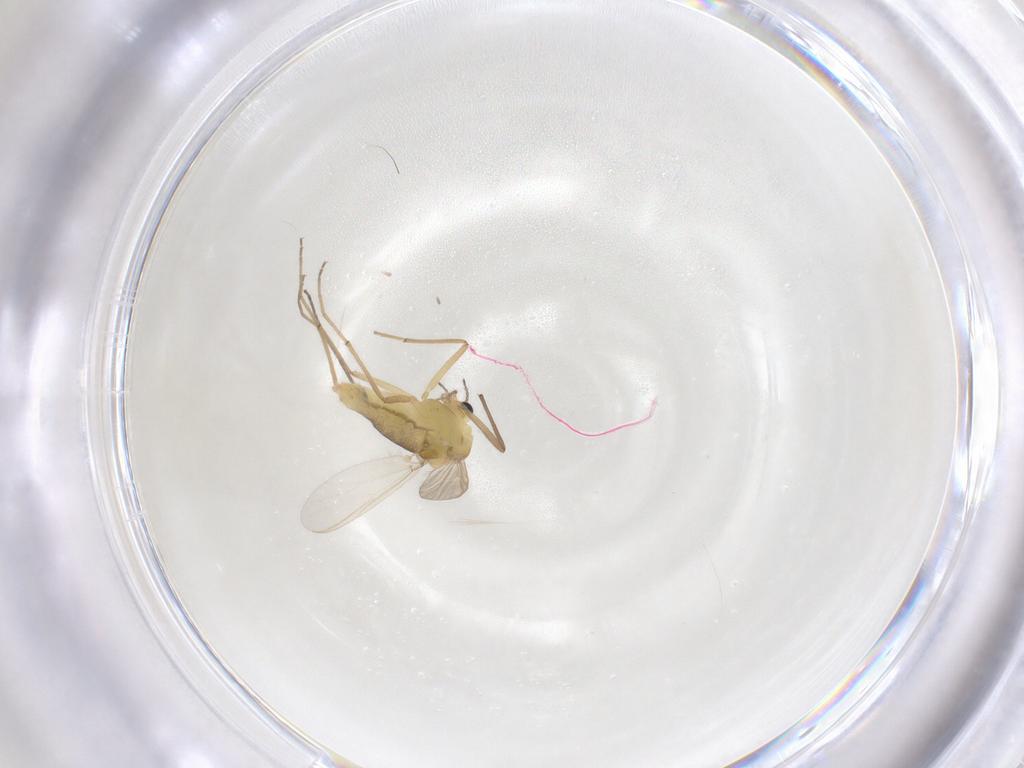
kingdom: Animalia
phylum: Arthropoda
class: Insecta
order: Diptera
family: Chironomidae
